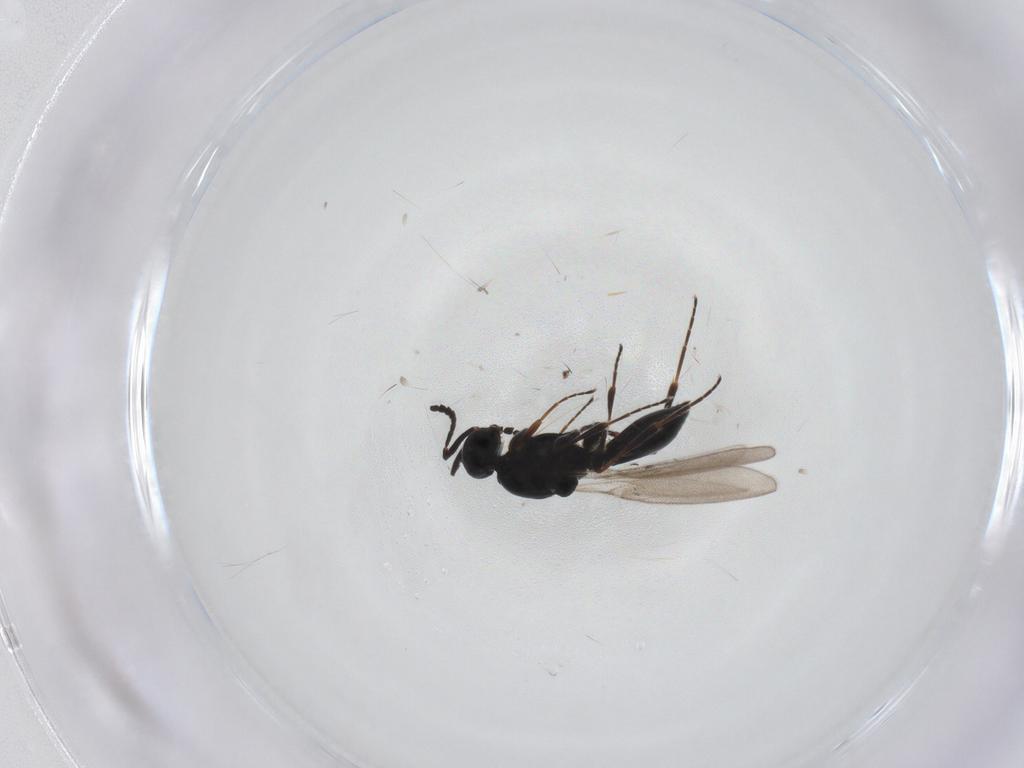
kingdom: Animalia
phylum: Arthropoda
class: Insecta
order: Diptera
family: Mythicomyiidae
